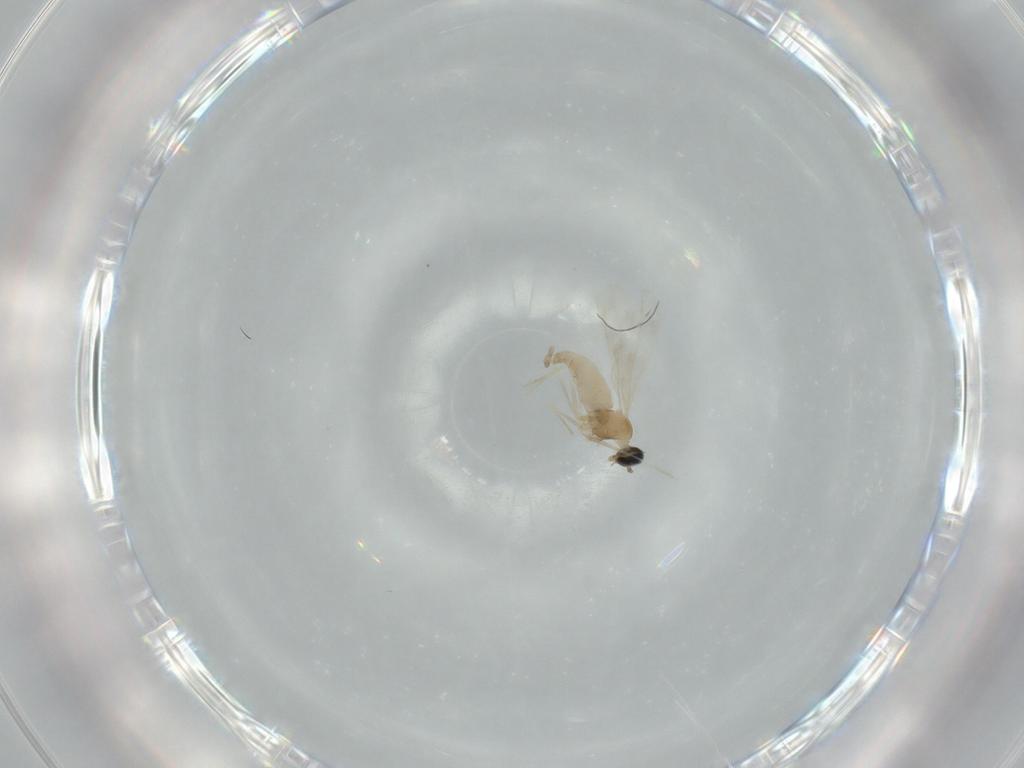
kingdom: Animalia
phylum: Arthropoda
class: Insecta
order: Diptera
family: Cecidomyiidae
